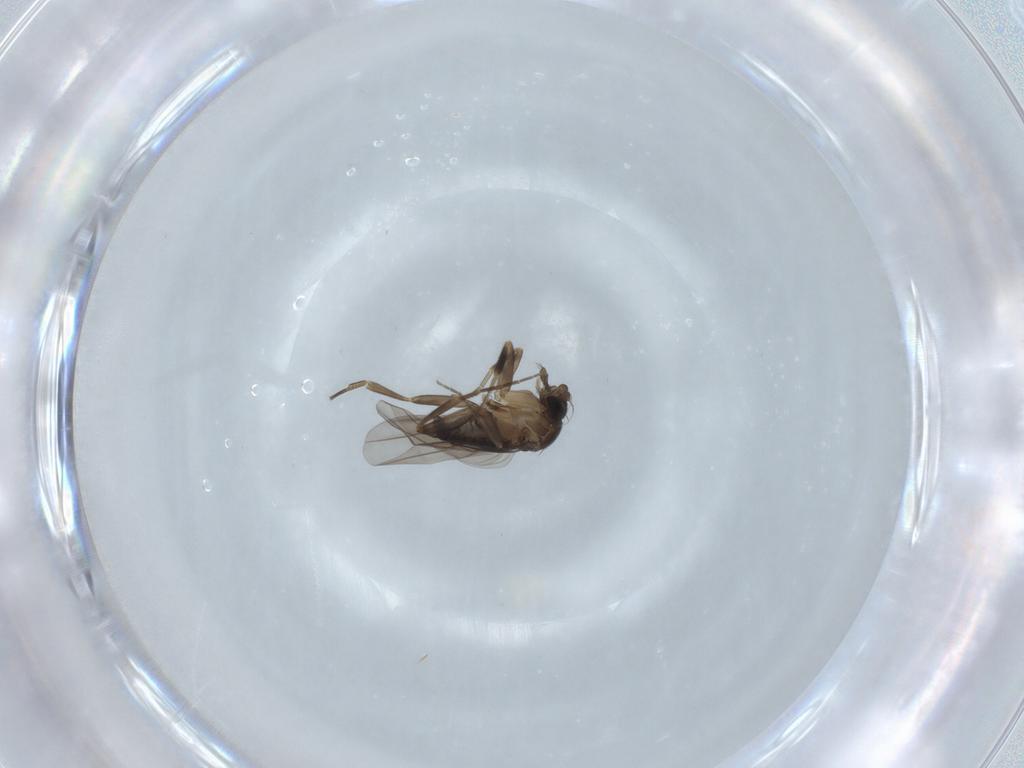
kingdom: Animalia
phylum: Arthropoda
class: Insecta
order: Diptera
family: Phoridae
